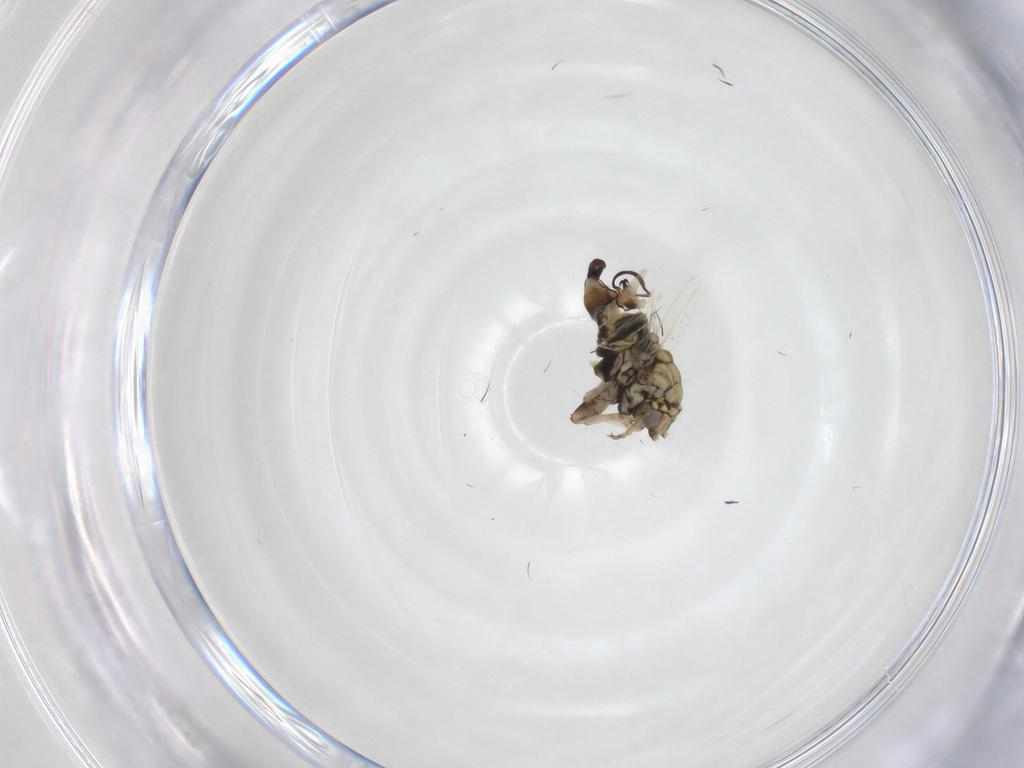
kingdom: Animalia
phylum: Arthropoda
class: Insecta
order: Hemiptera
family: Aphalaridae
